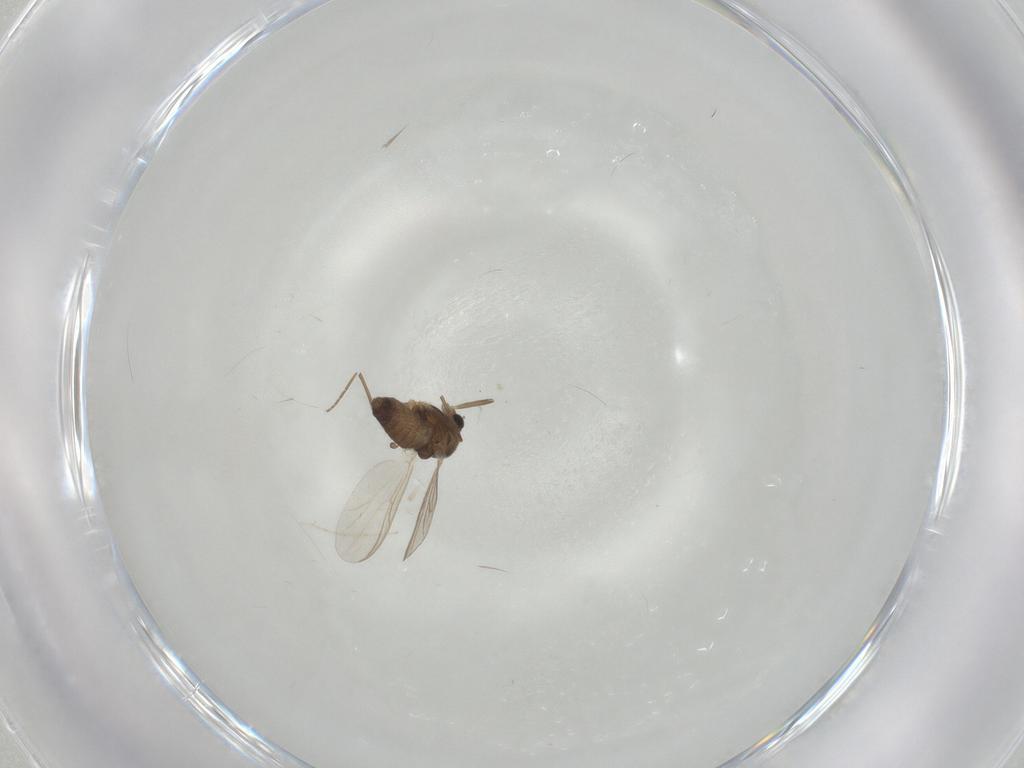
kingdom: Animalia
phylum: Arthropoda
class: Insecta
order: Diptera
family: Chironomidae
